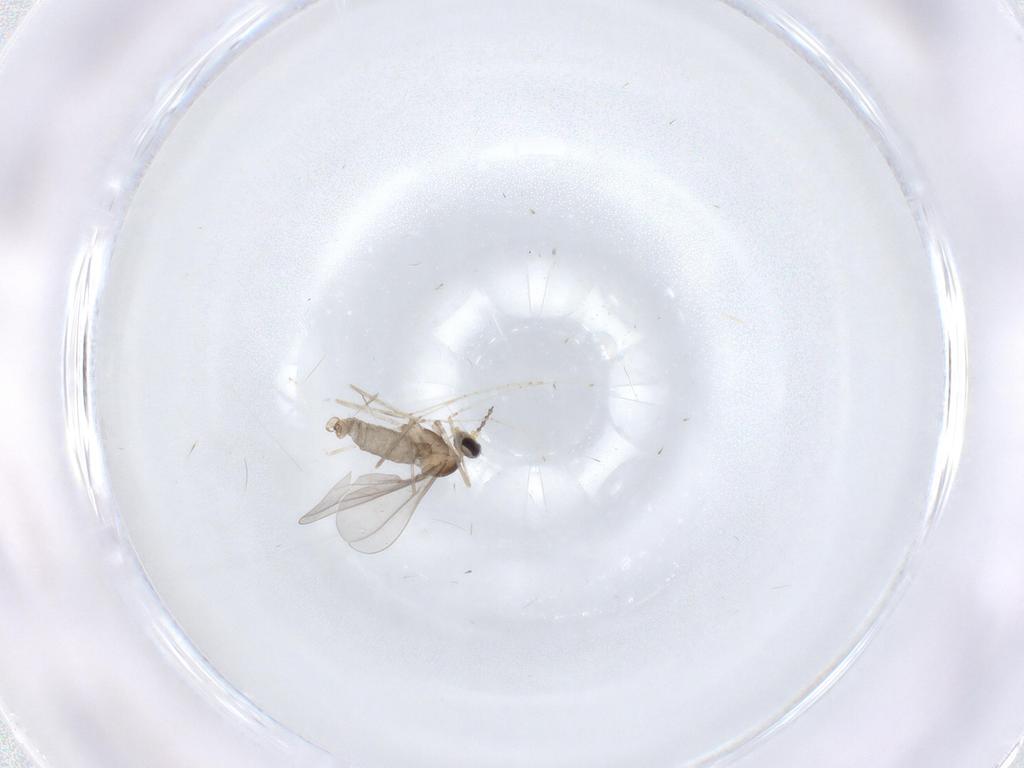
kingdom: Animalia
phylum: Arthropoda
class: Insecta
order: Diptera
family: Cecidomyiidae
